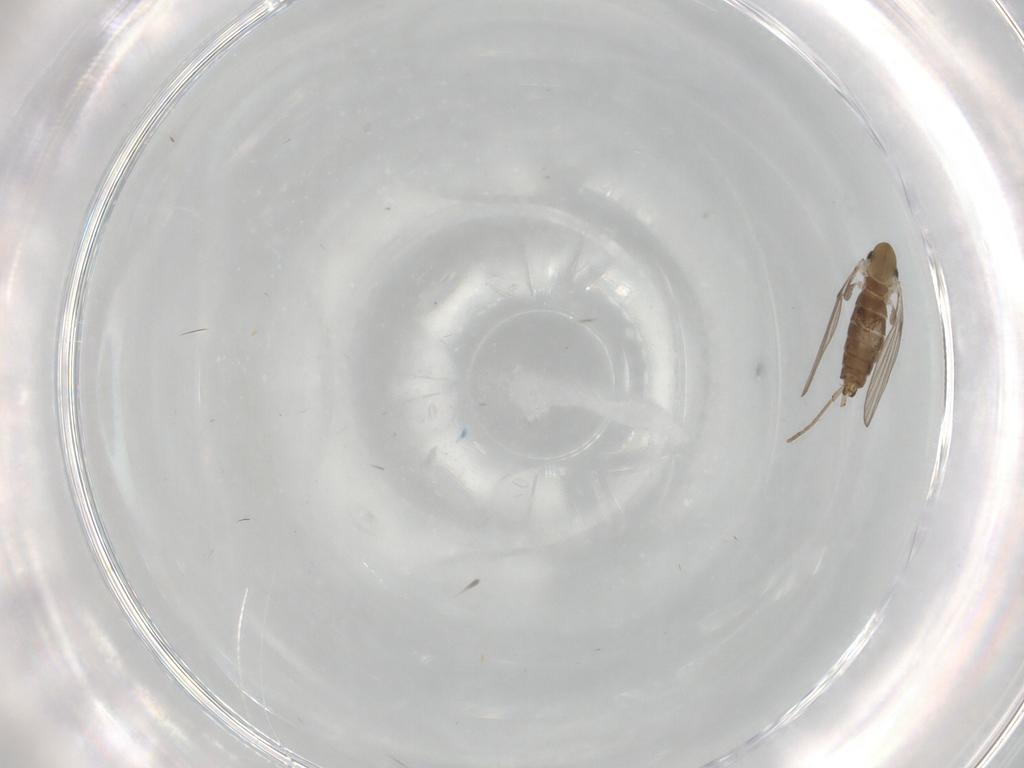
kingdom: Animalia
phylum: Arthropoda
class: Insecta
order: Diptera
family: Psychodidae
